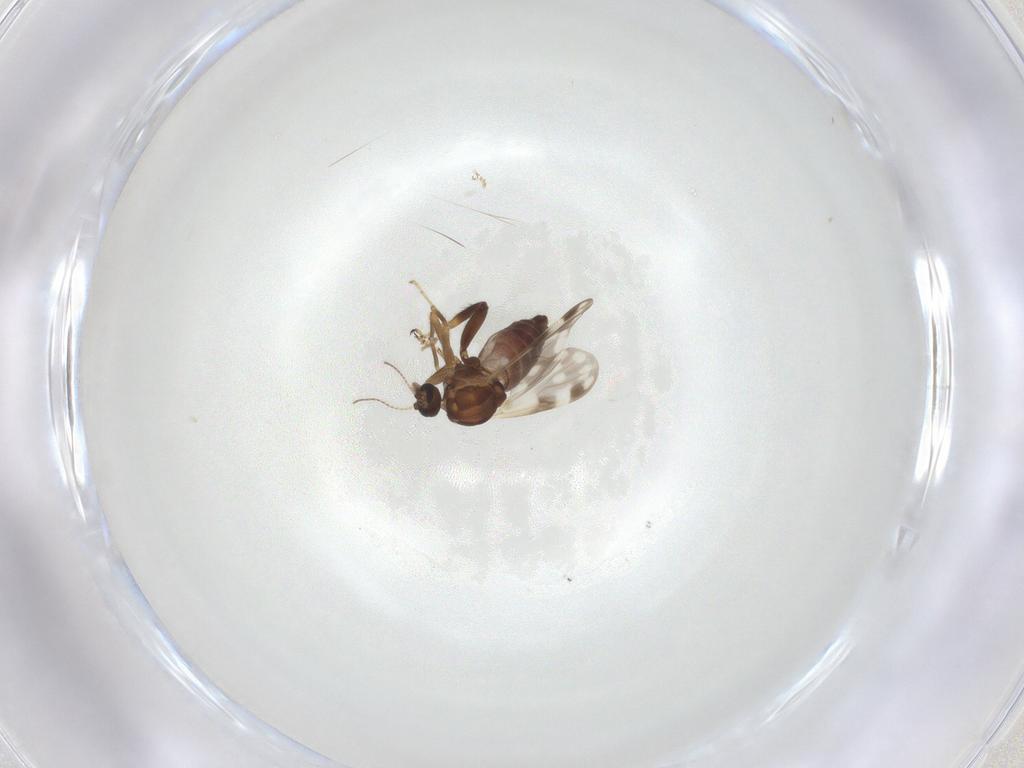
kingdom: Animalia
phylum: Arthropoda
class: Insecta
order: Diptera
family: Ceratopogonidae
